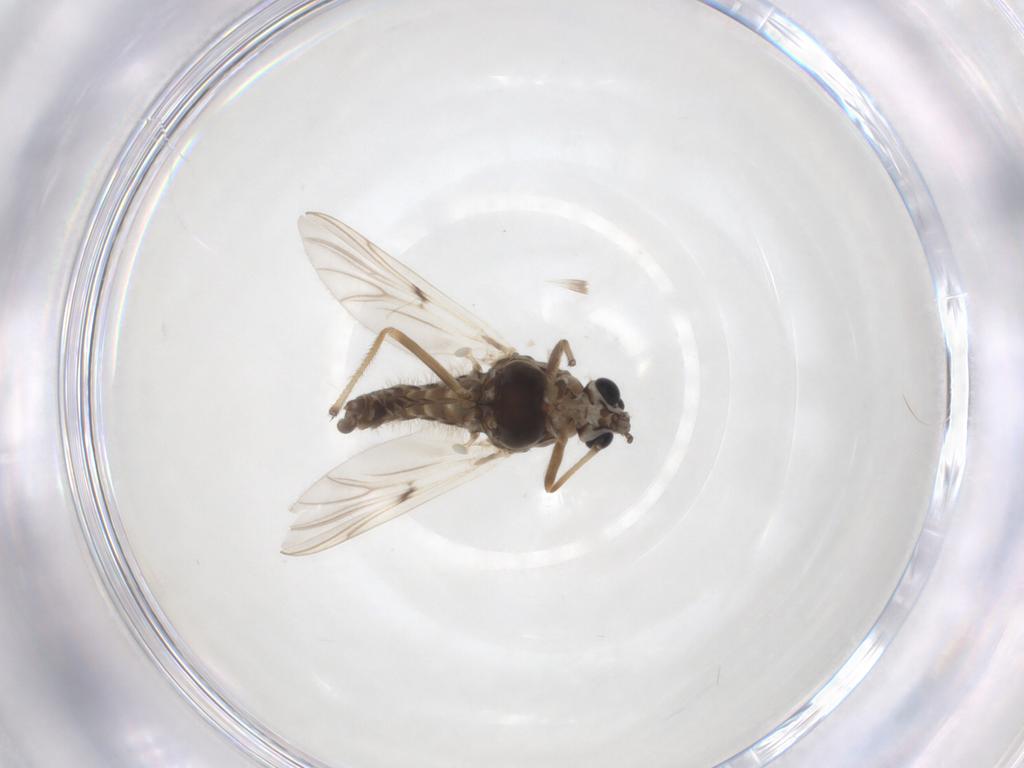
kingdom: Animalia
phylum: Arthropoda
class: Insecta
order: Diptera
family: Chironomidae
